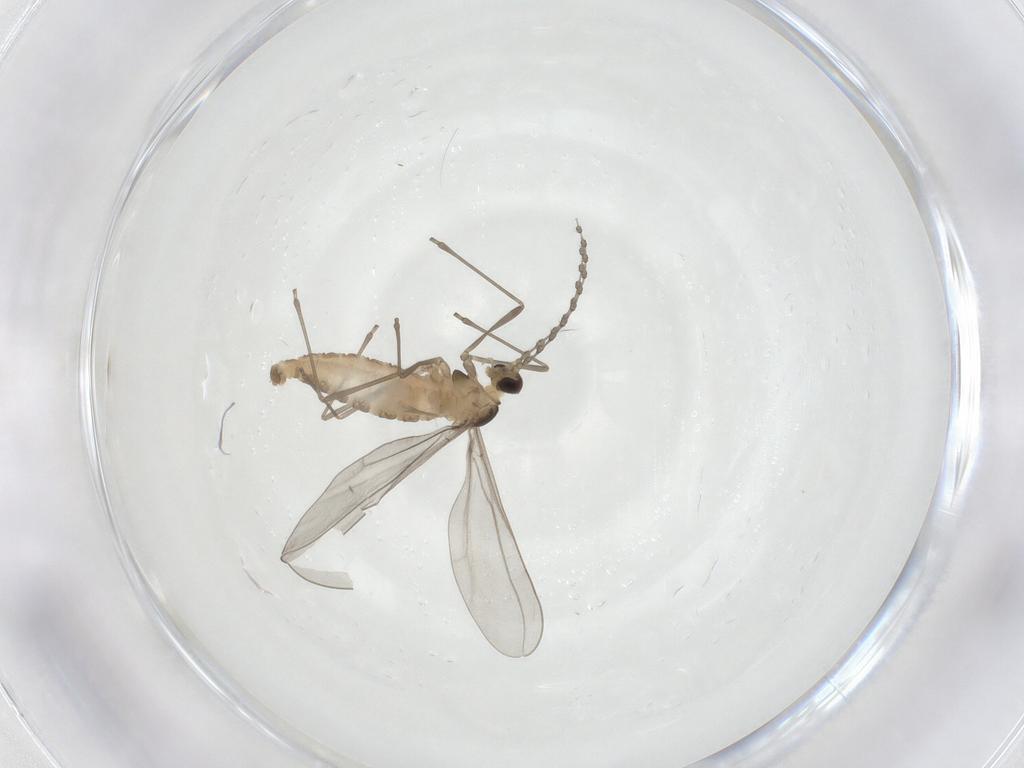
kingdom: Animalia
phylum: Arthropoda
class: Insecta
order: Diptera
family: Cecidomyiidae
